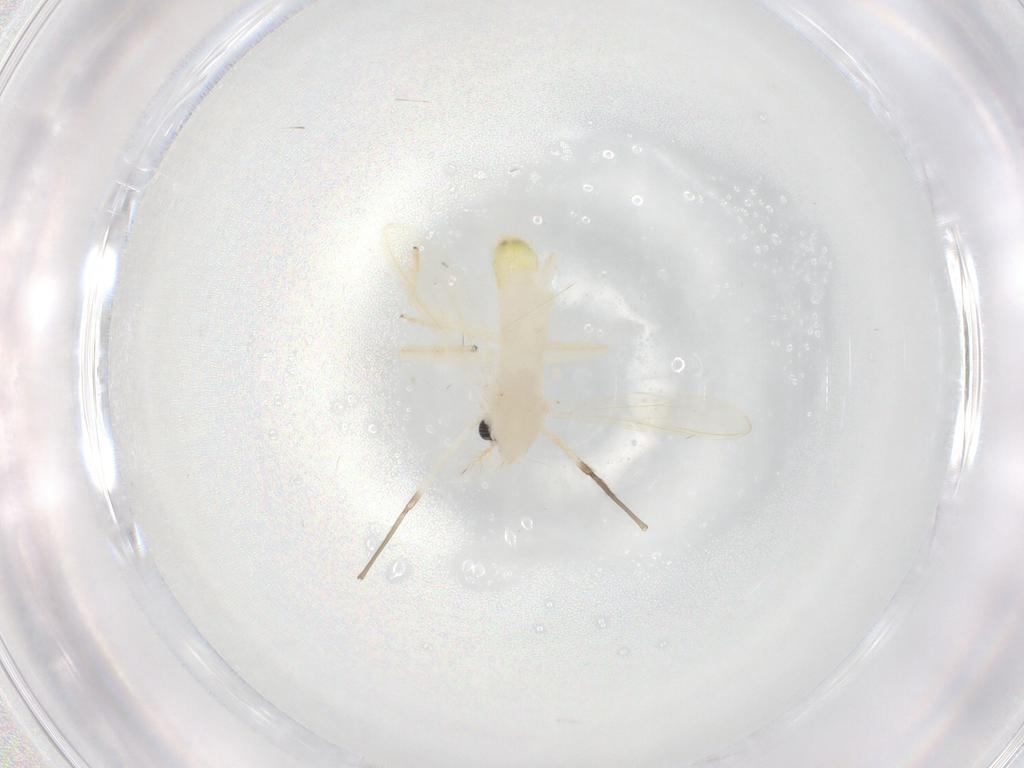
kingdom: Animalia
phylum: Arthropoda
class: Insecta
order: Diptera
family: Chironomidae
